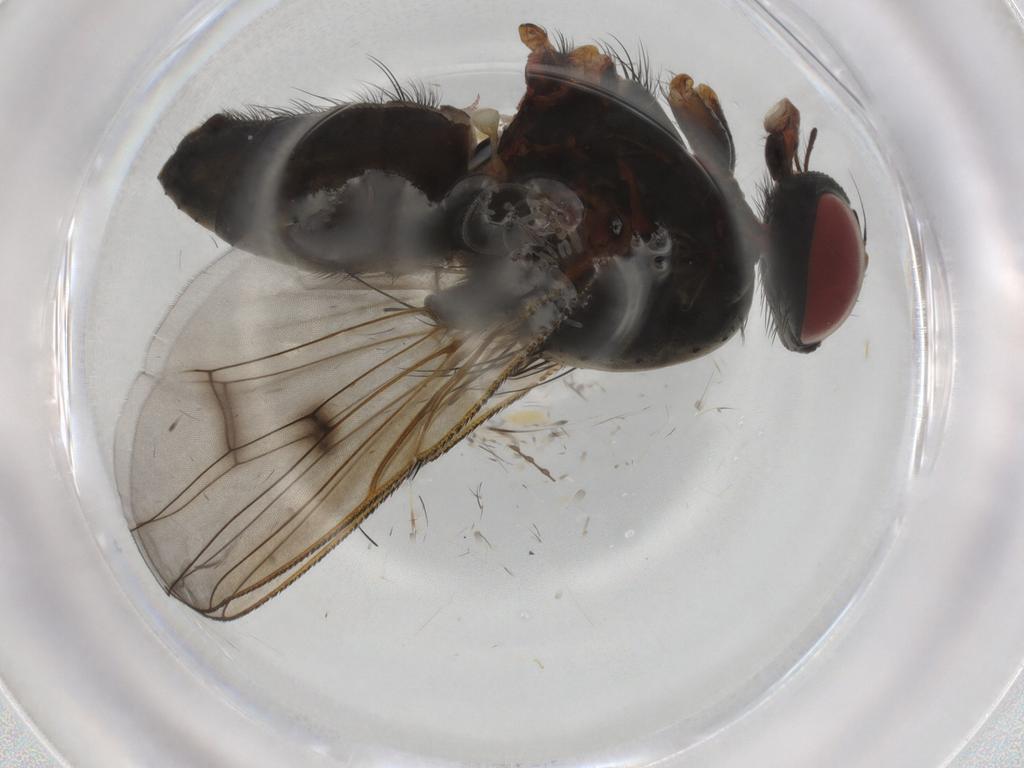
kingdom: Animalia
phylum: Arthropoda
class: Insecta
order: Diptera
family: Muscidae
